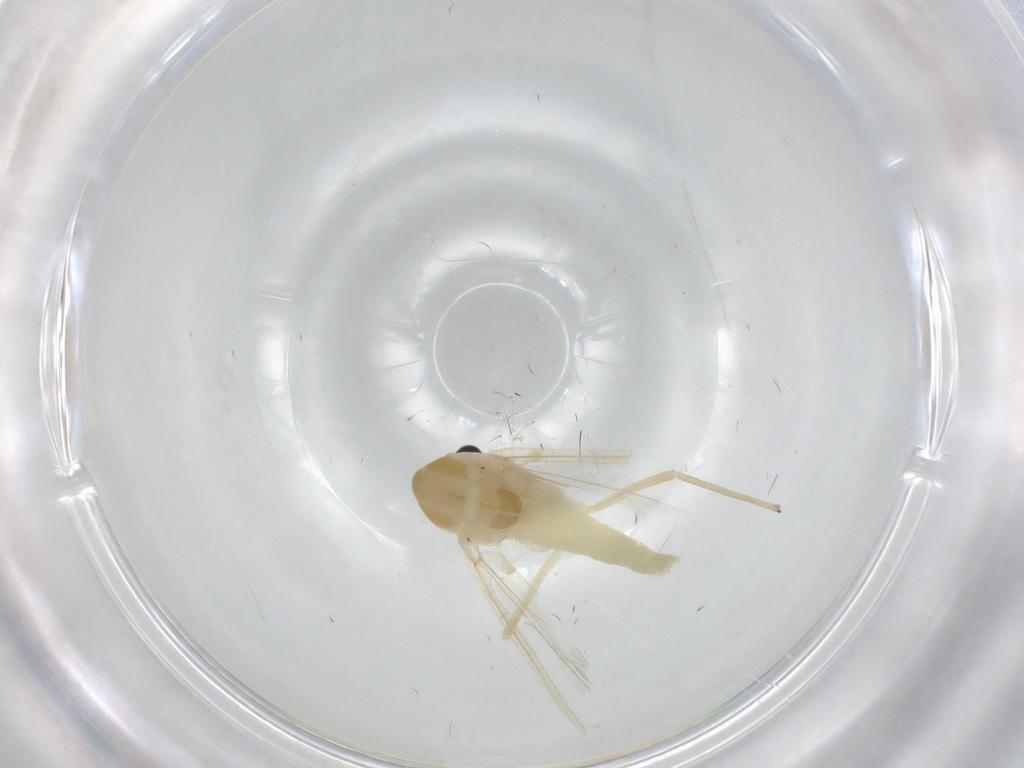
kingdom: Animalia
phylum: Arthropoda
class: Insecta
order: Diptera
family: Chironomidae
